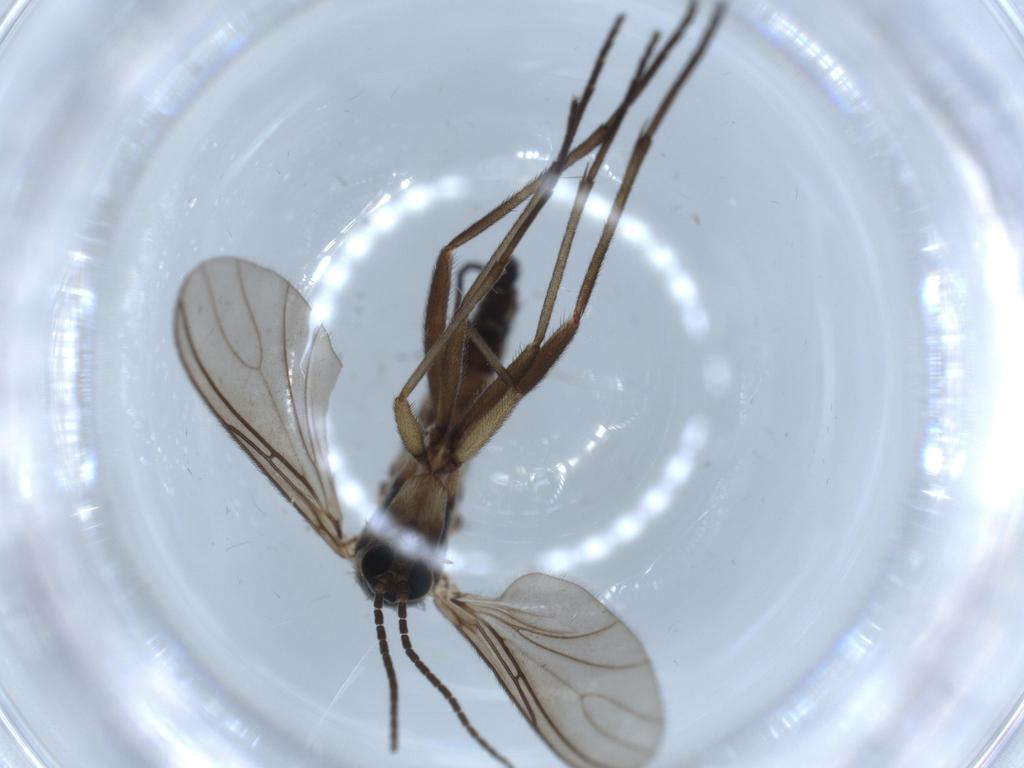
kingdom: Animalia
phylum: Arthropoda
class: Insecta
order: Diptera
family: Sciaridae
